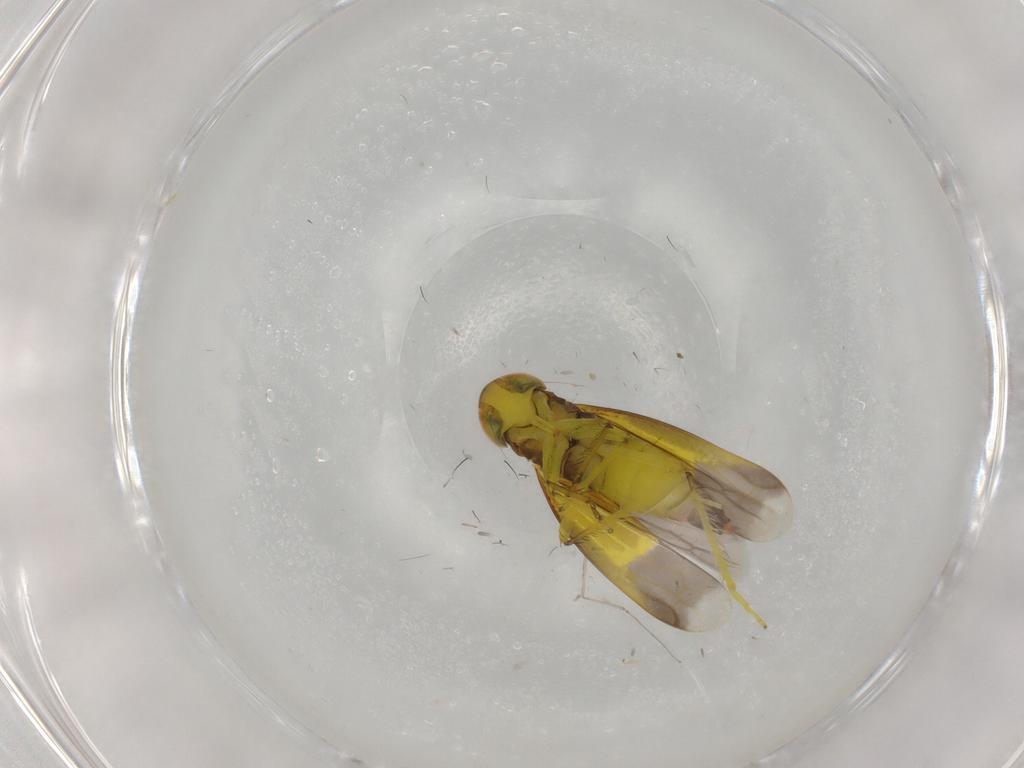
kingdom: Animalia
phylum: Arthropoda
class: Insecta
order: Hemiptera
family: Cicadellidae
